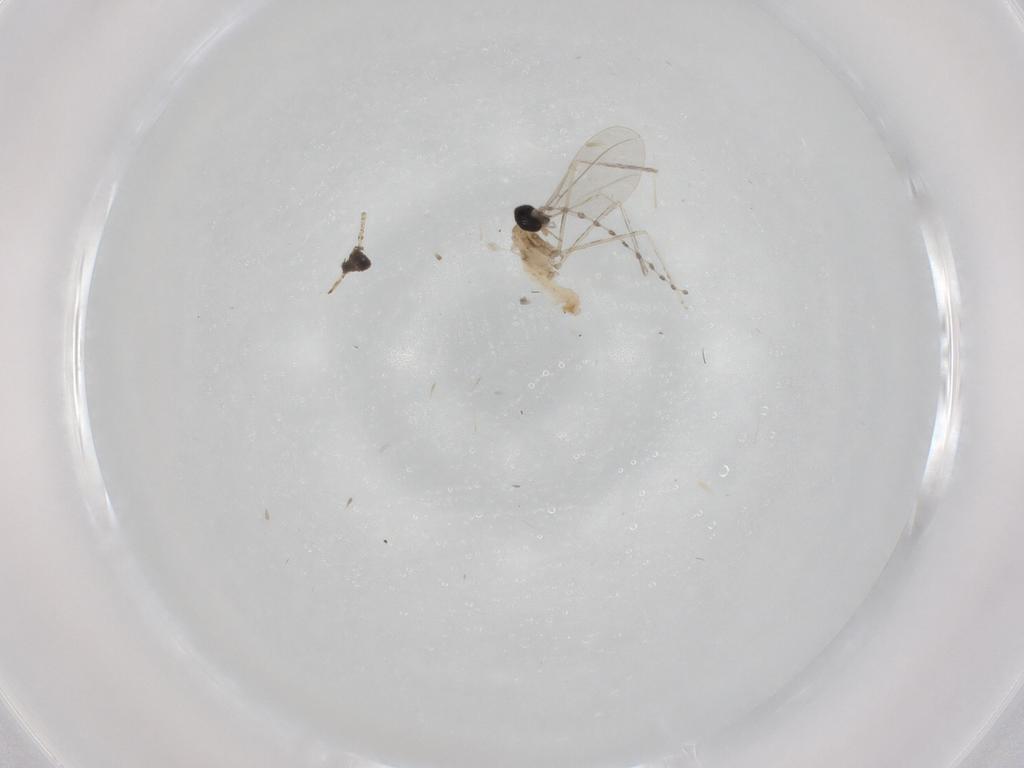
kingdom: Animalia
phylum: Arthropoda
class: Insecta
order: Diptera
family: Cecidomyiidae
